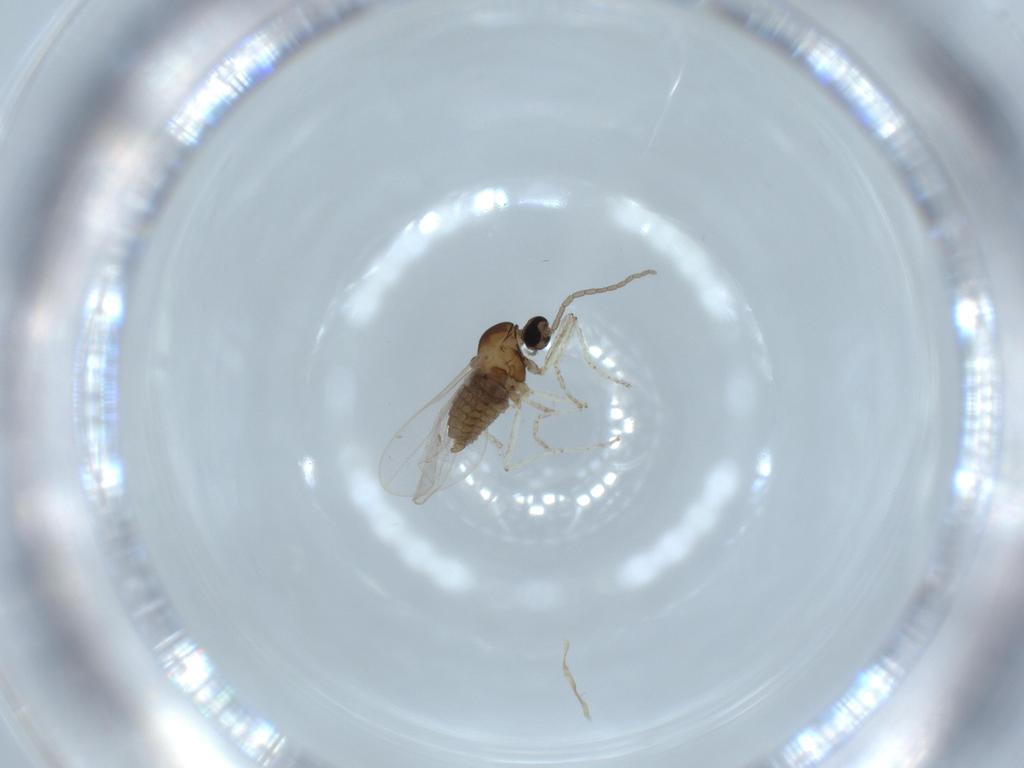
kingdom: Animalia
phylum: Arthropoda
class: Insecta
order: Diptera
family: Cecidomyiidae
